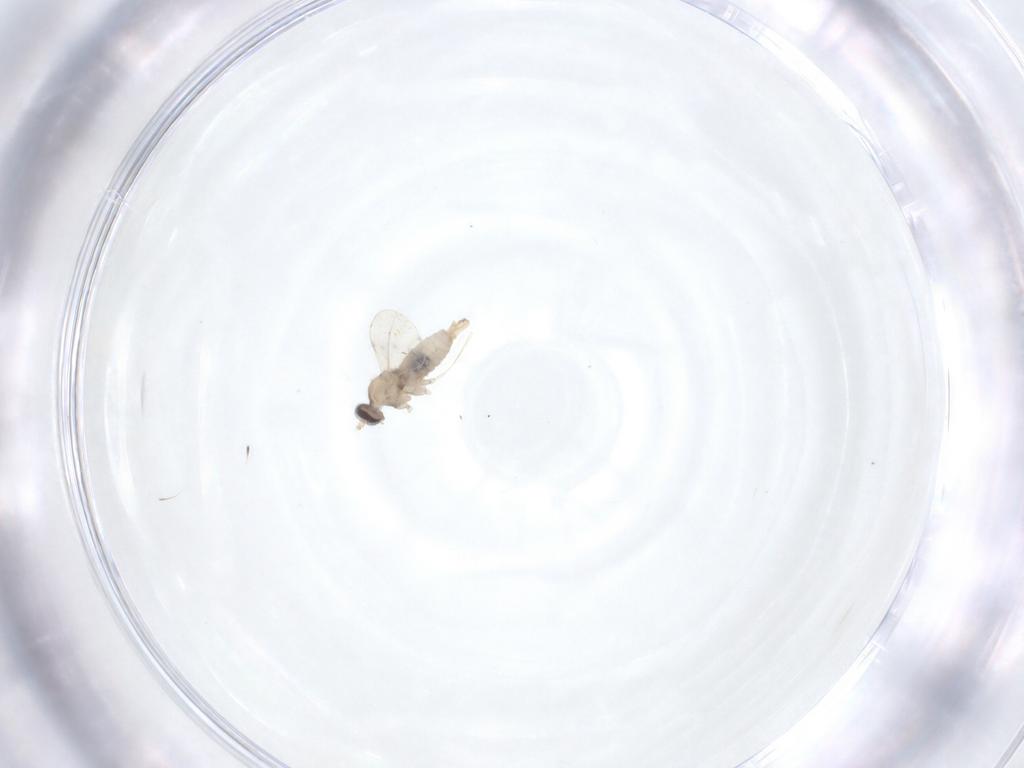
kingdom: Animalia
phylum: Arthropoda
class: Insecta
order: Diptera
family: Cecidomyiidae
